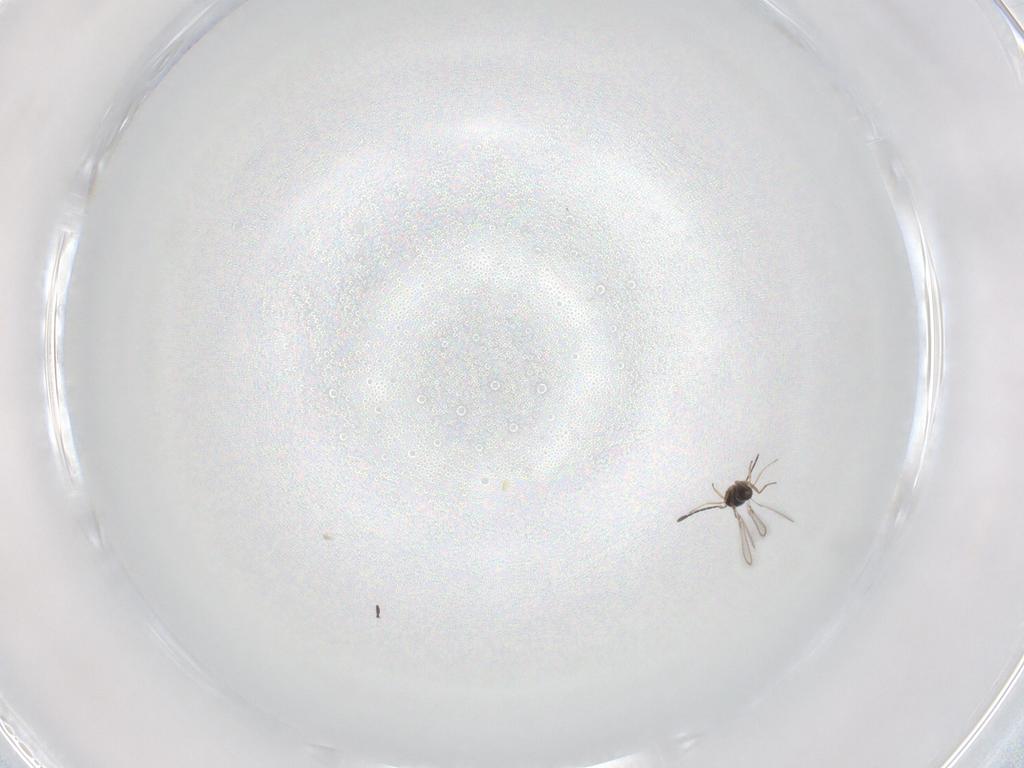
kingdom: Animalia
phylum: Arthropoda
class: Insecta
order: Hymenoptera
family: Mymaridae
